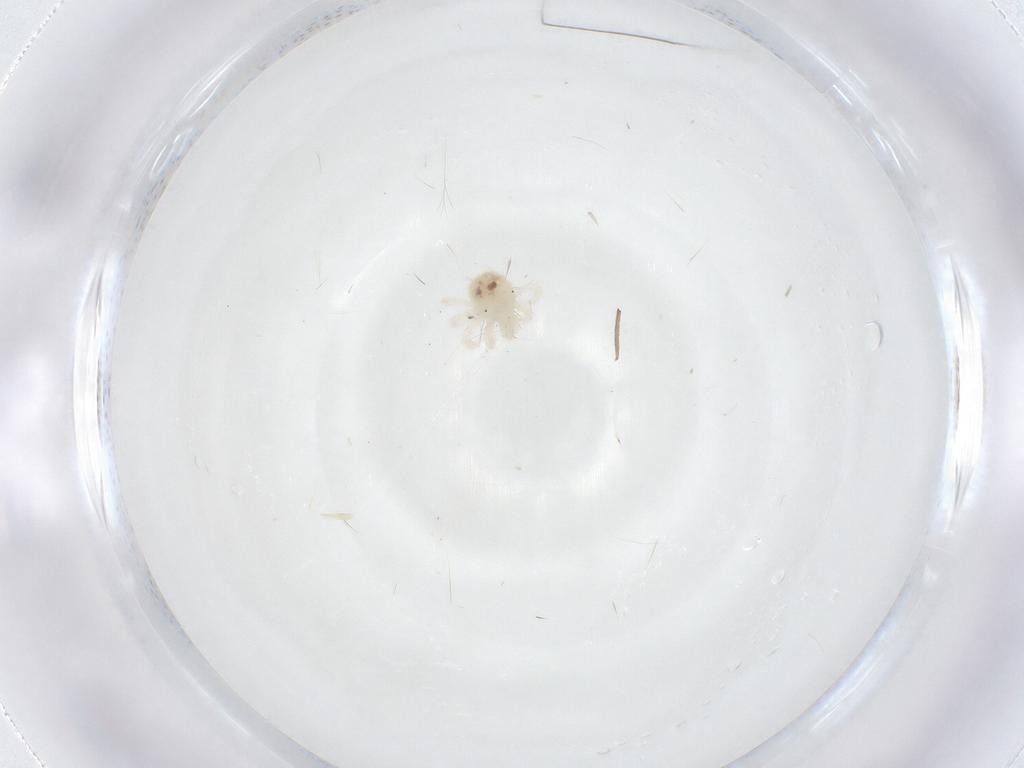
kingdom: Animalia
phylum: Arthropoda
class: Arachnida
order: Trombidiformes
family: Anystidae
